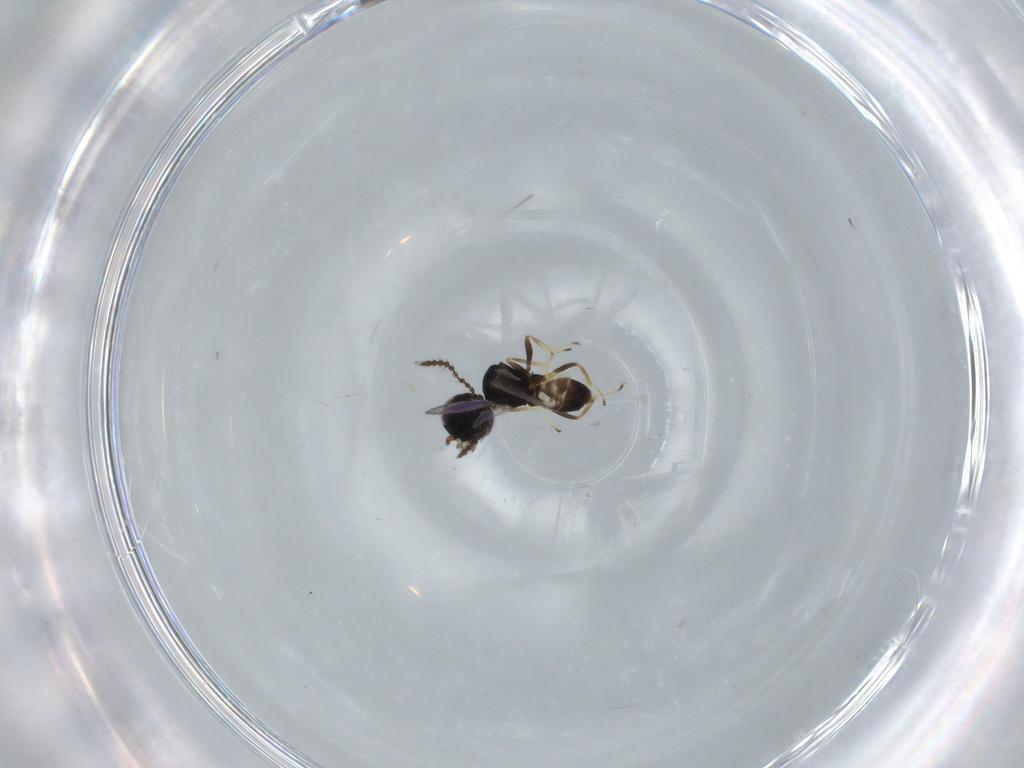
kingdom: Animalia
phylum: Arthropoda
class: Insecta
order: Hymenoptera
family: Pteromalidae
